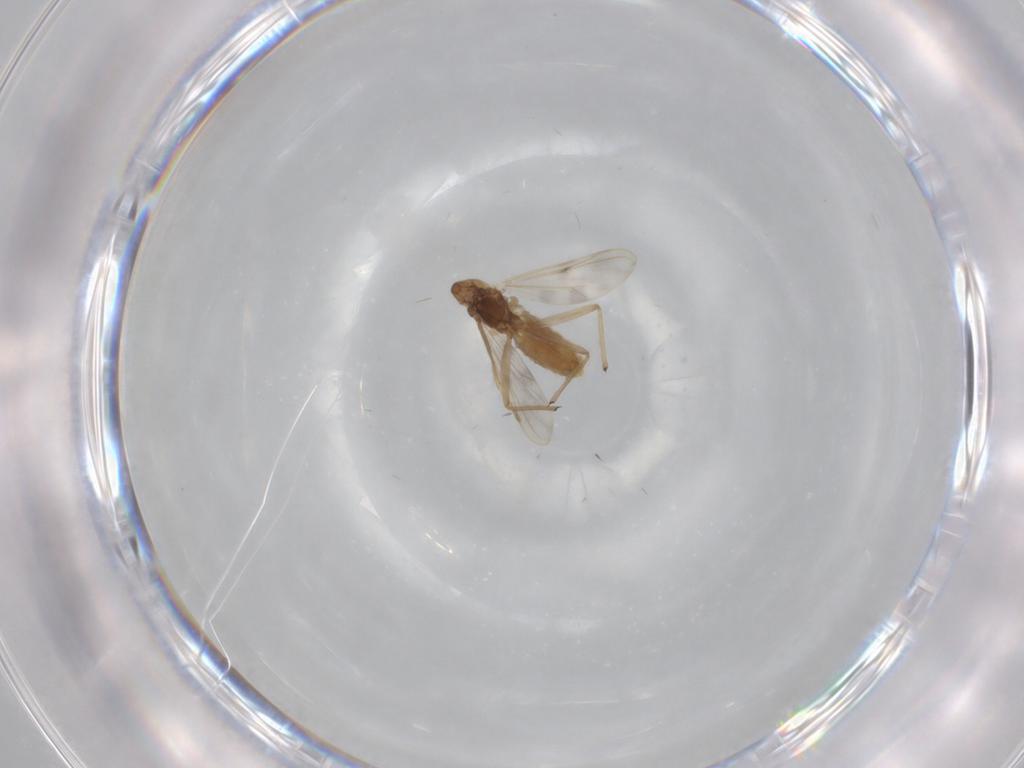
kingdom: Animalia
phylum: Arthropoda
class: Insecta
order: Diptera
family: Chironomidae
